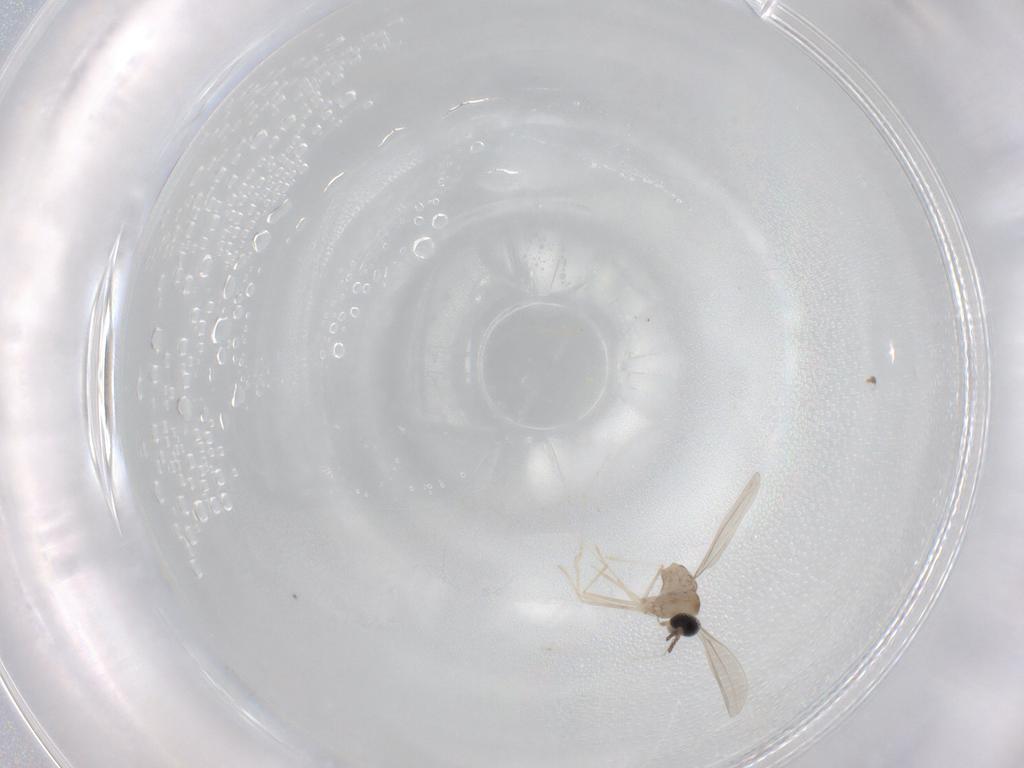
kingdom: Animalia
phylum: Arthropoda
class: Insecta
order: Diptera
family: Cecidomyiidae
